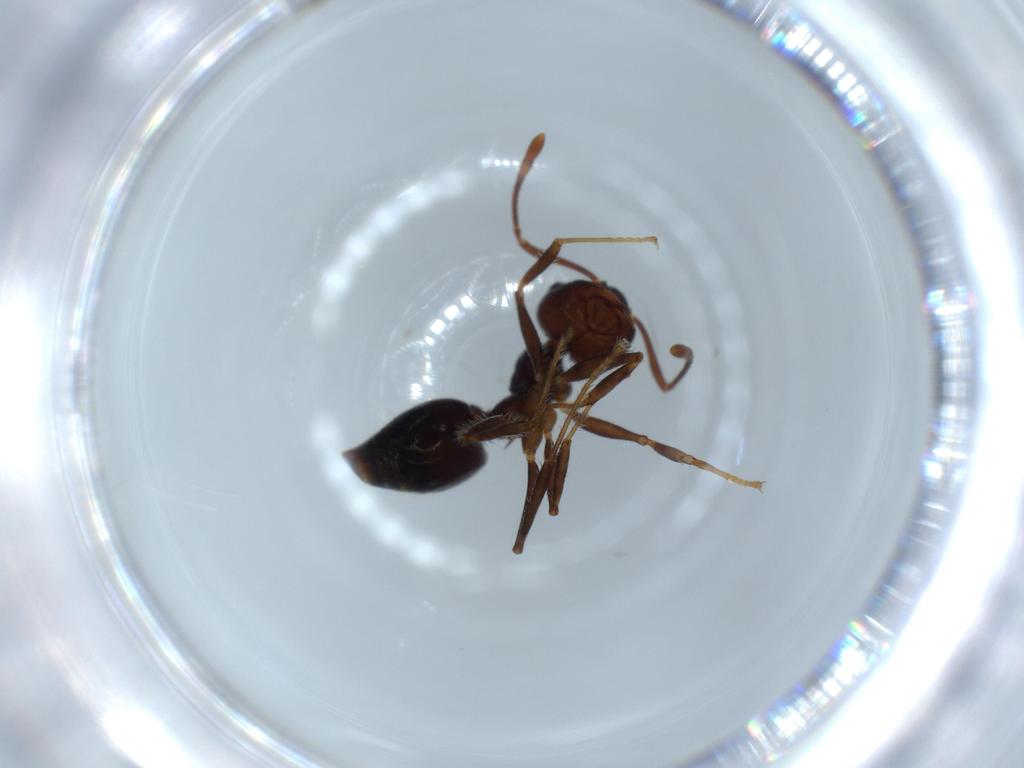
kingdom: Animalia
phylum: Arthropoda
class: Insecta
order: Hymenoptera
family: Formicidae
